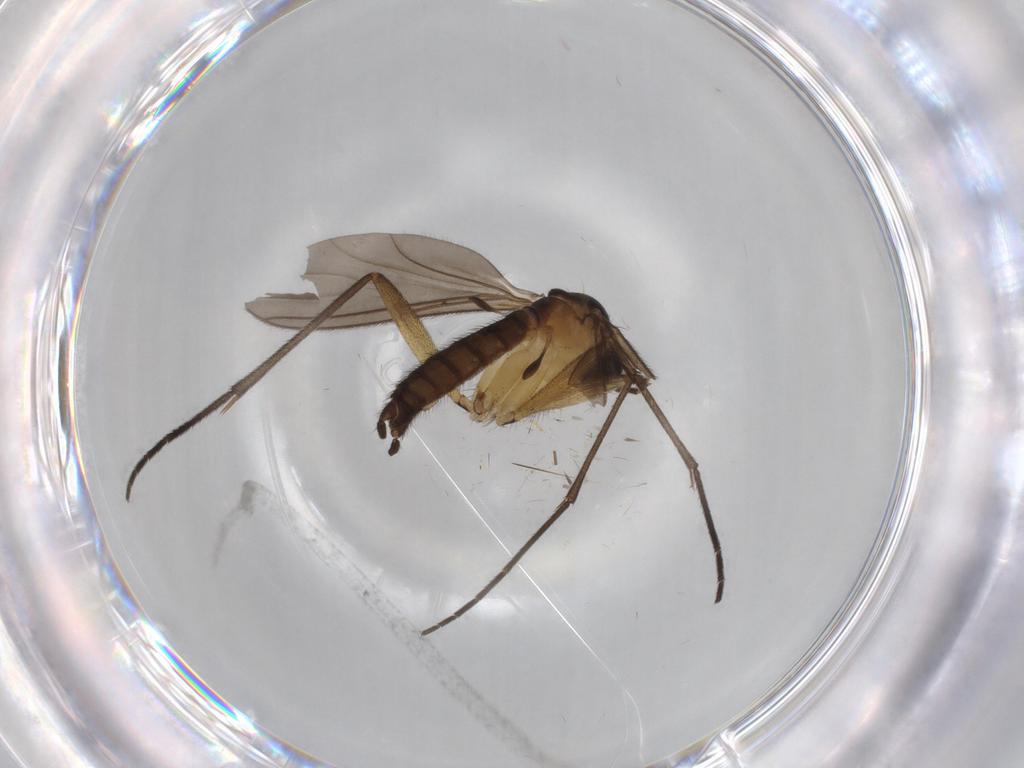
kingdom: Animalia
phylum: Arthropoda
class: Insecta
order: Diptera
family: Sciaridae
